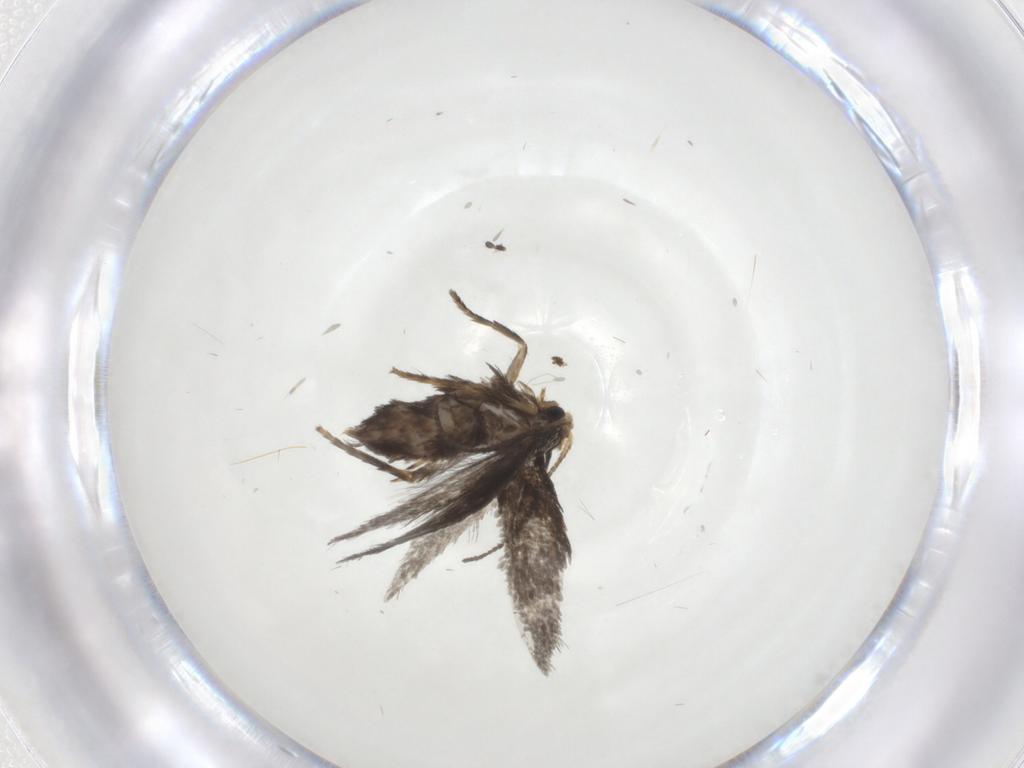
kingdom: Animalia
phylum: Arthropoda
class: Insecta
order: Lepidoptera
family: Nepticulidae
